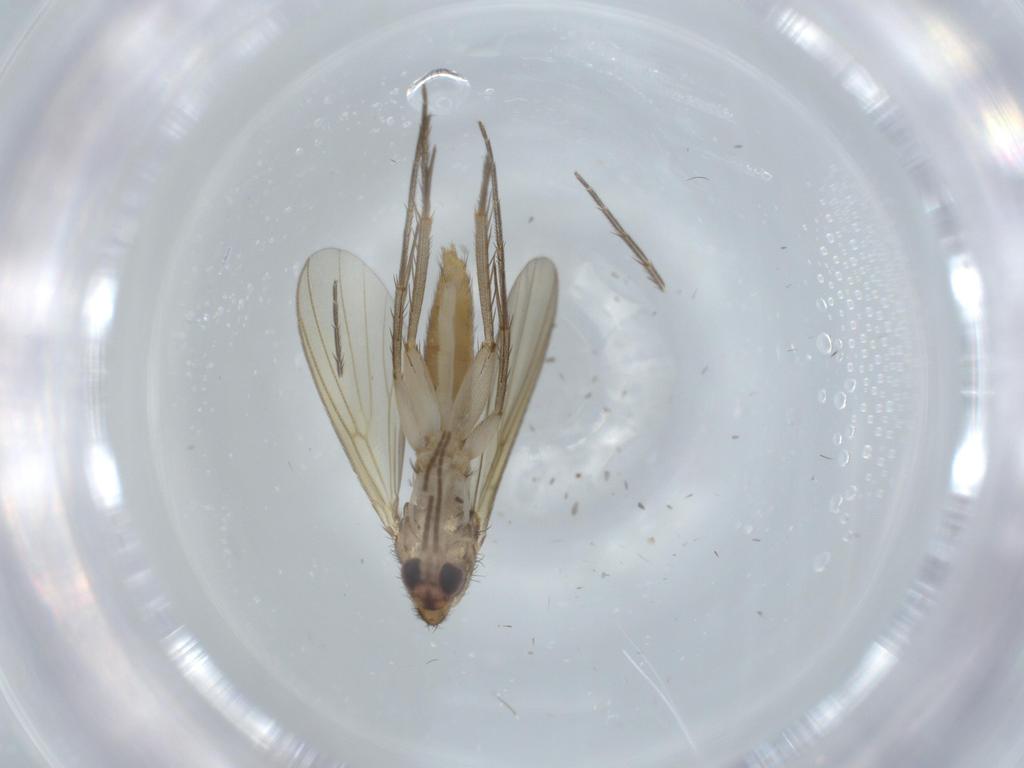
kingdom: Animalia
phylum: Arthropoda
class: Insecta
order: Diptera
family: Mycetophilidae
